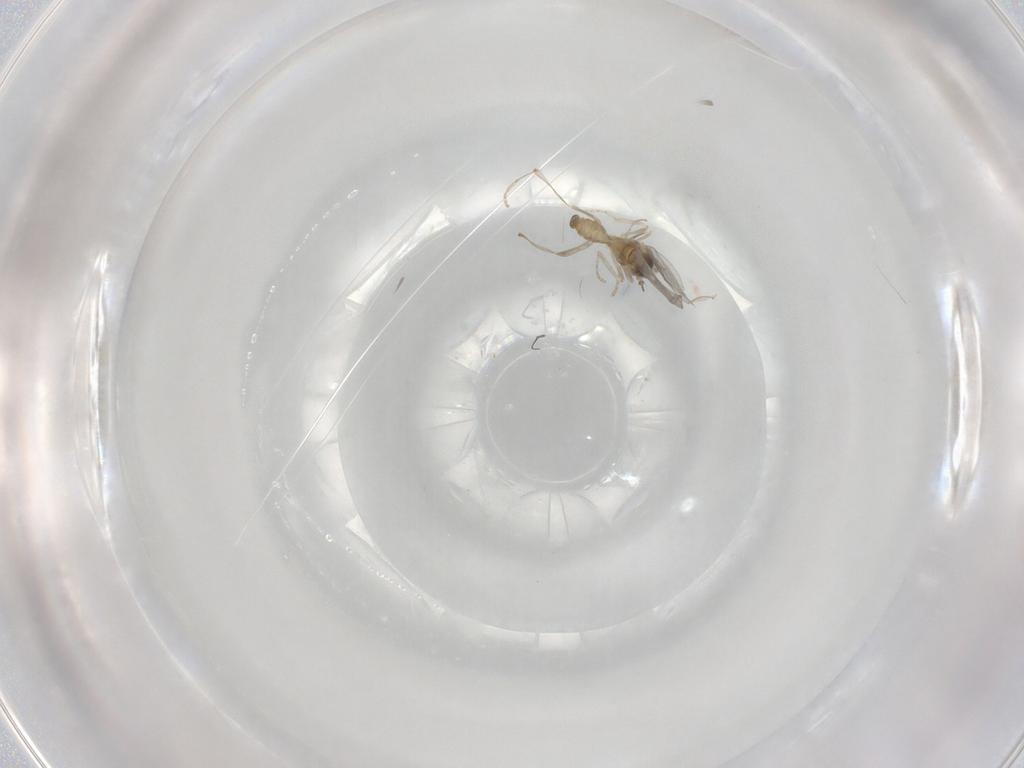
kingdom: Animalia
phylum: Arthropoda
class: Insecta
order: Diptera
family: Cecidomyiidae
